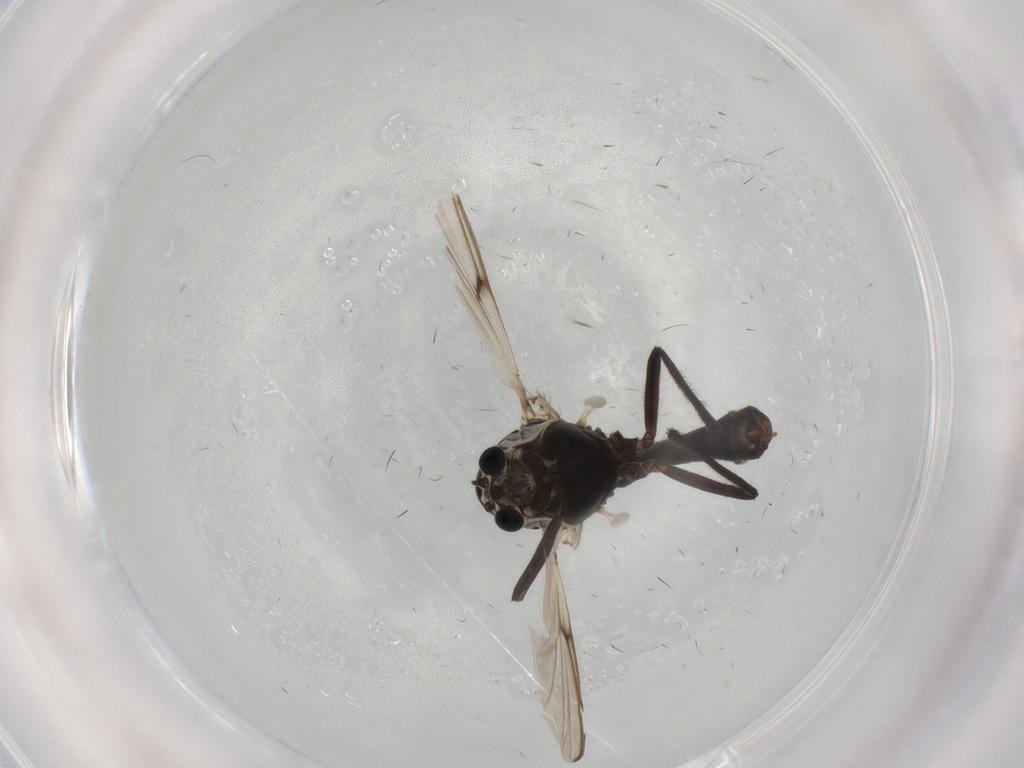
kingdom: Animalia
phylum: Arthropoda
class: Insecta
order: Diptera
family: Chironomidae
